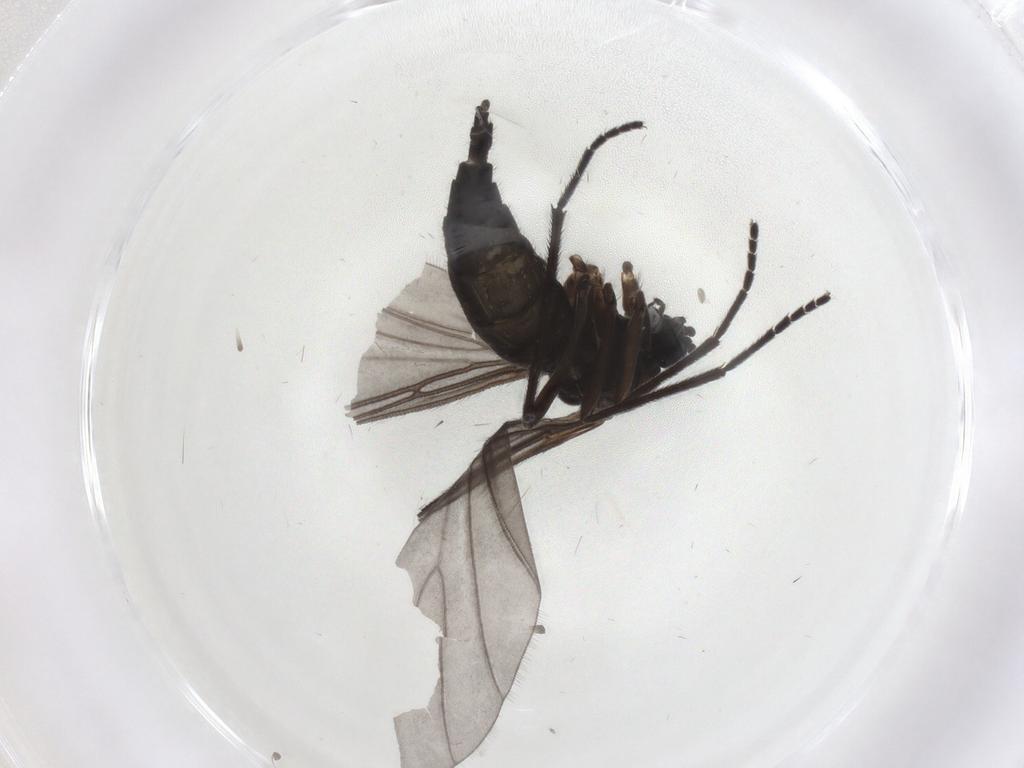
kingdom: Animalia
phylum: Arthropoda
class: Insecta
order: Diptera
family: Sciaridae
